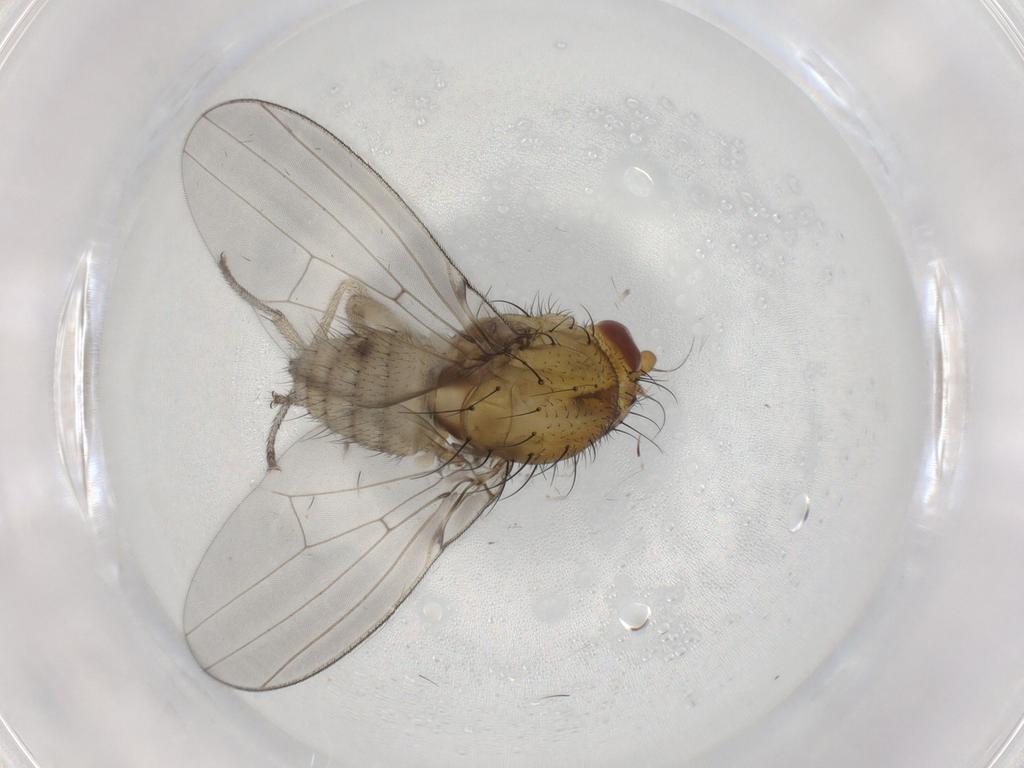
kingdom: Animalia
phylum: Arthropoda
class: Insecta
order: Diptera
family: Lauxaniidae
